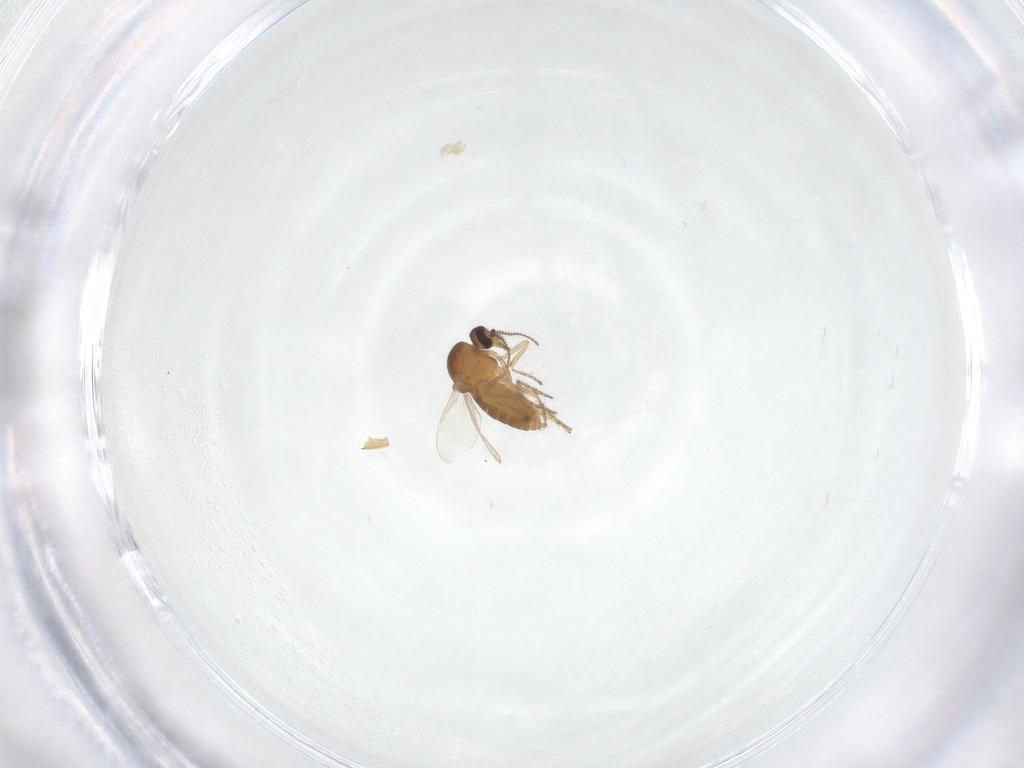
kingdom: Animalia
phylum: Arthropoda
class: Insecta
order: Diptera
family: Ceratopogonidae
